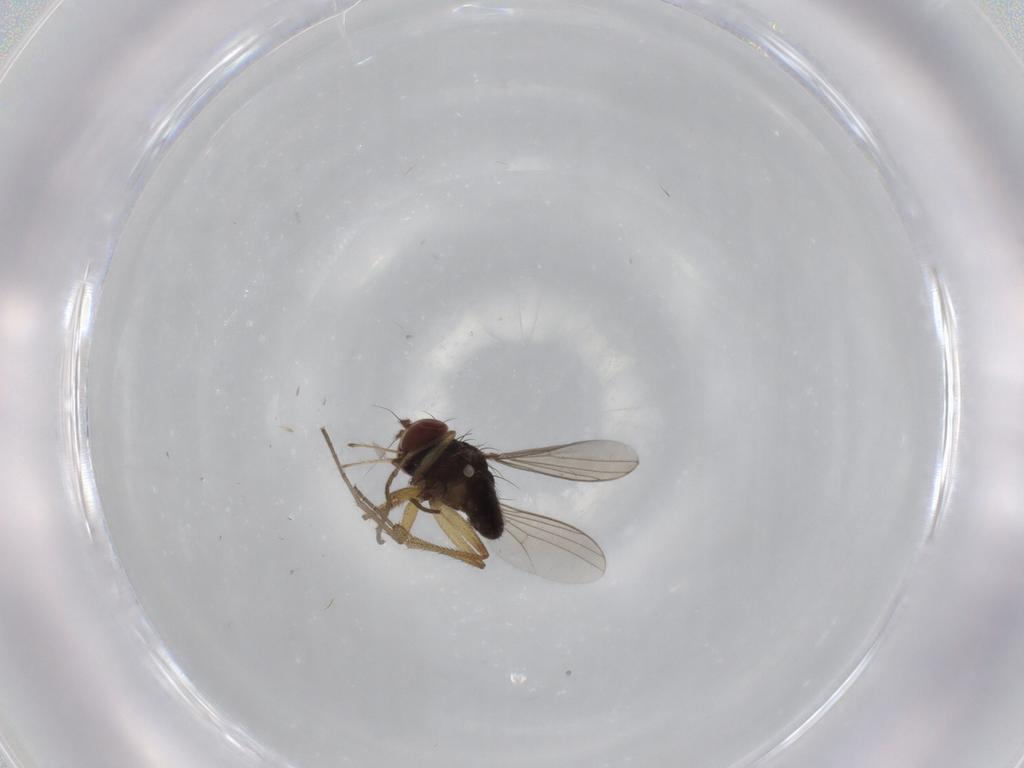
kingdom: Animalia
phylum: Arthropoda
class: Insecta
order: Diptera
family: Dolichopodidae
